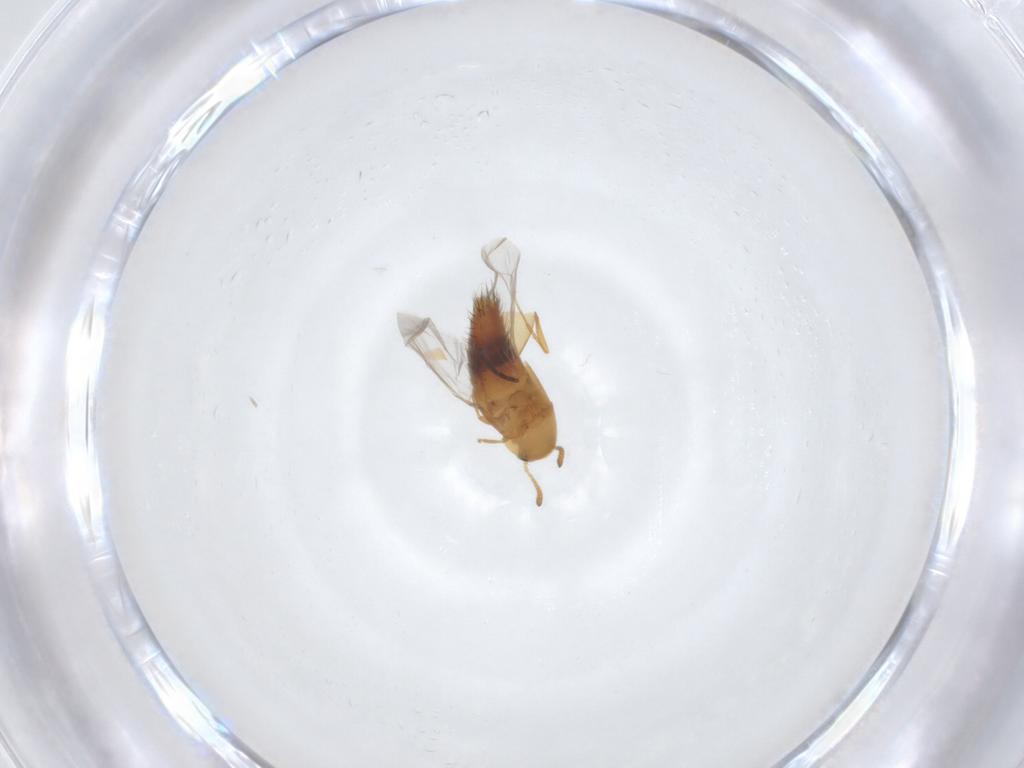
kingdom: Animalia
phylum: Arthropoda
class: Insecta
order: Coleoptera
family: Staphylinidae
